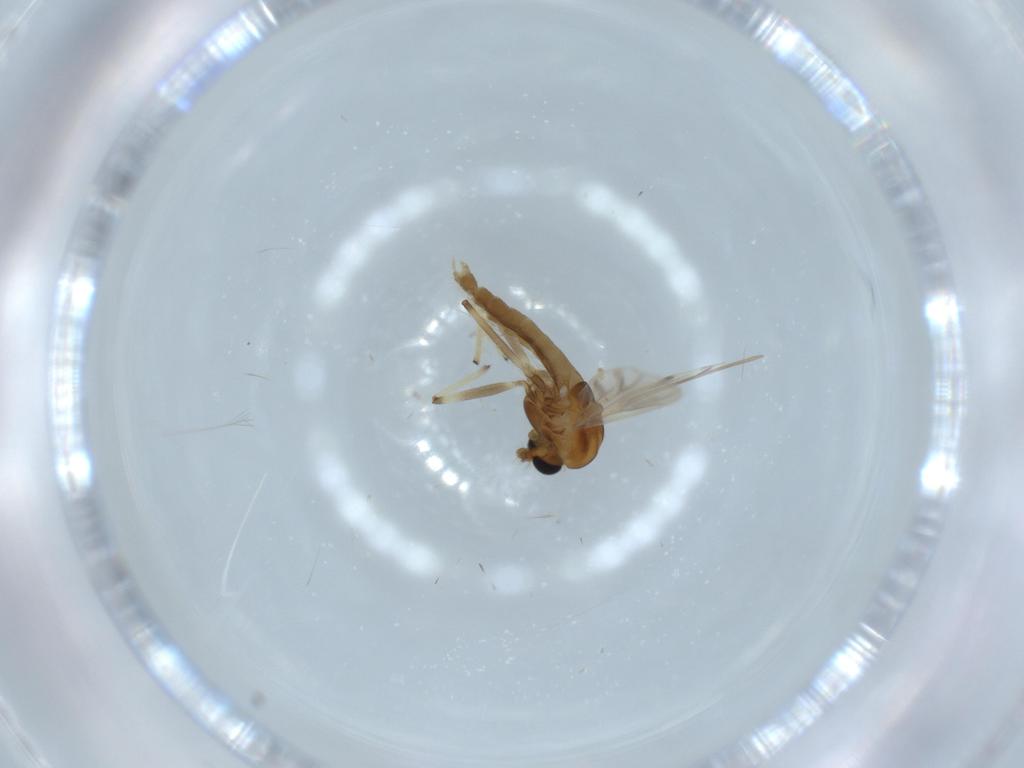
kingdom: Animalia
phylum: Arthropoda
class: Insecta
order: Diptera
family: Chironomidae
